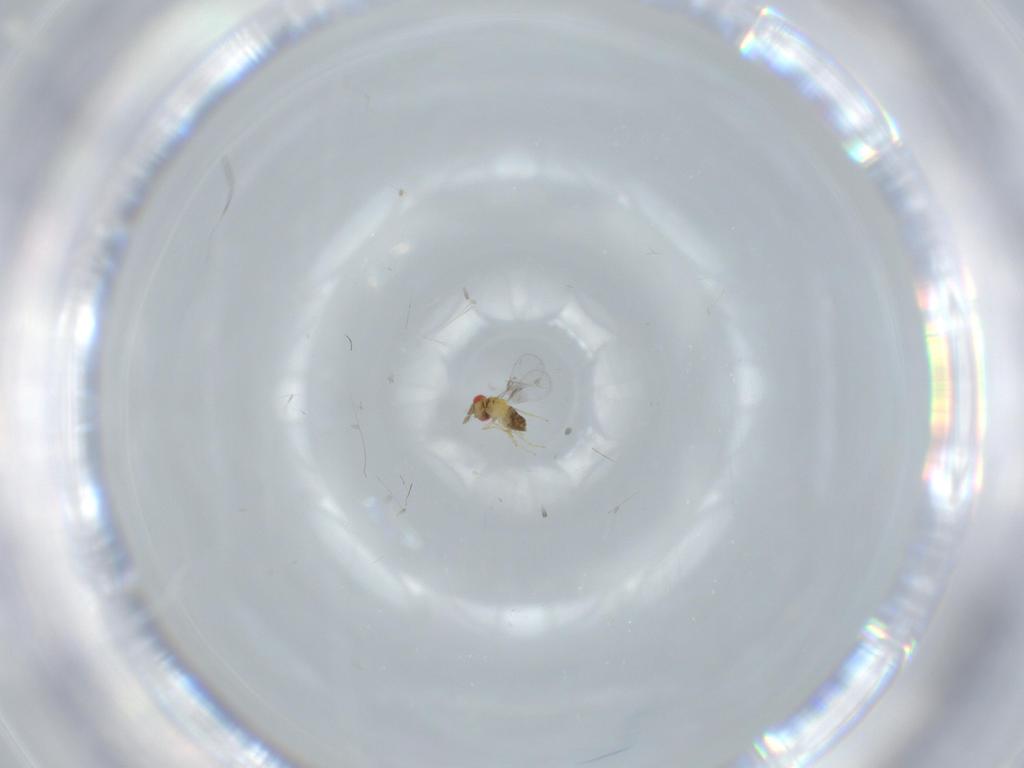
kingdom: Animalia
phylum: Arthropoda
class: Insecta
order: Hymenoptera
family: Trichogrammatidae
